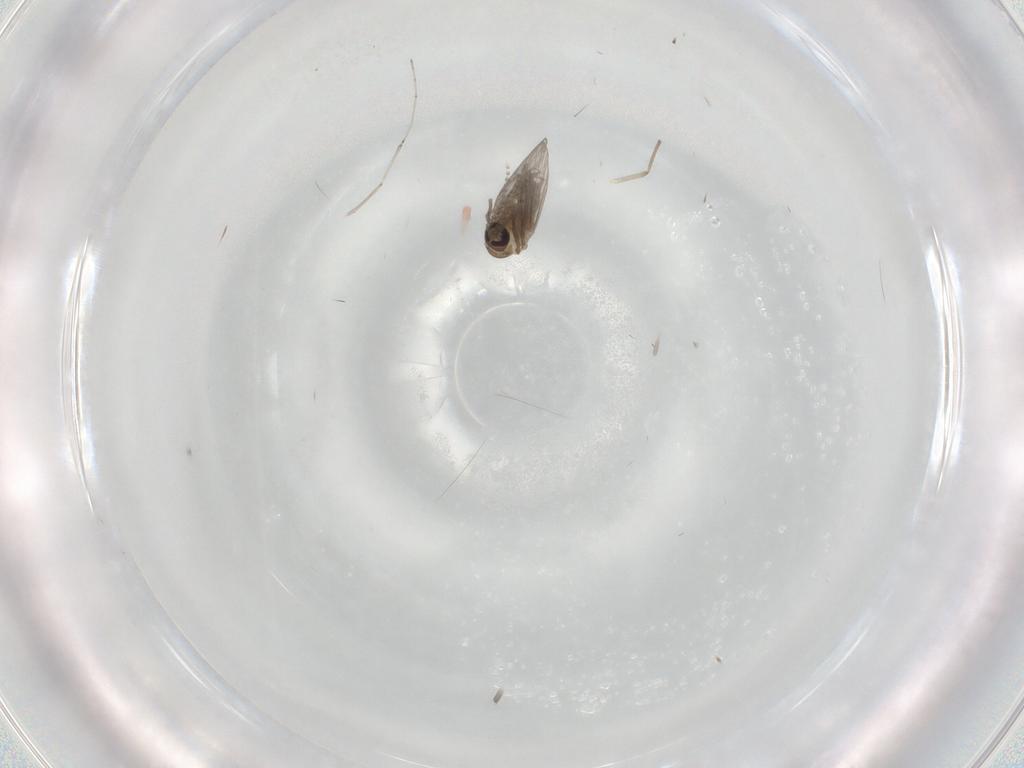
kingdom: Animalia
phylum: Arthropoda
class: Insecta
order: Diptera
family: Psychodidae
